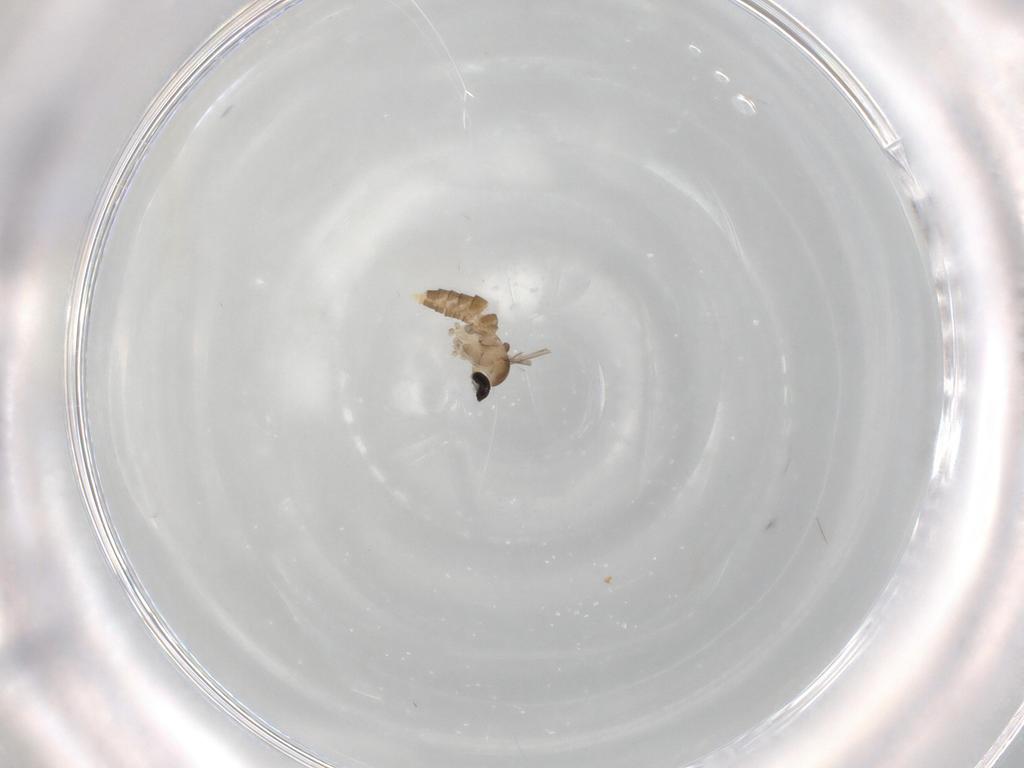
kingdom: Animalia
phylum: Arthropoda
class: Insecta
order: Diptera
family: Cecidomyiidae
